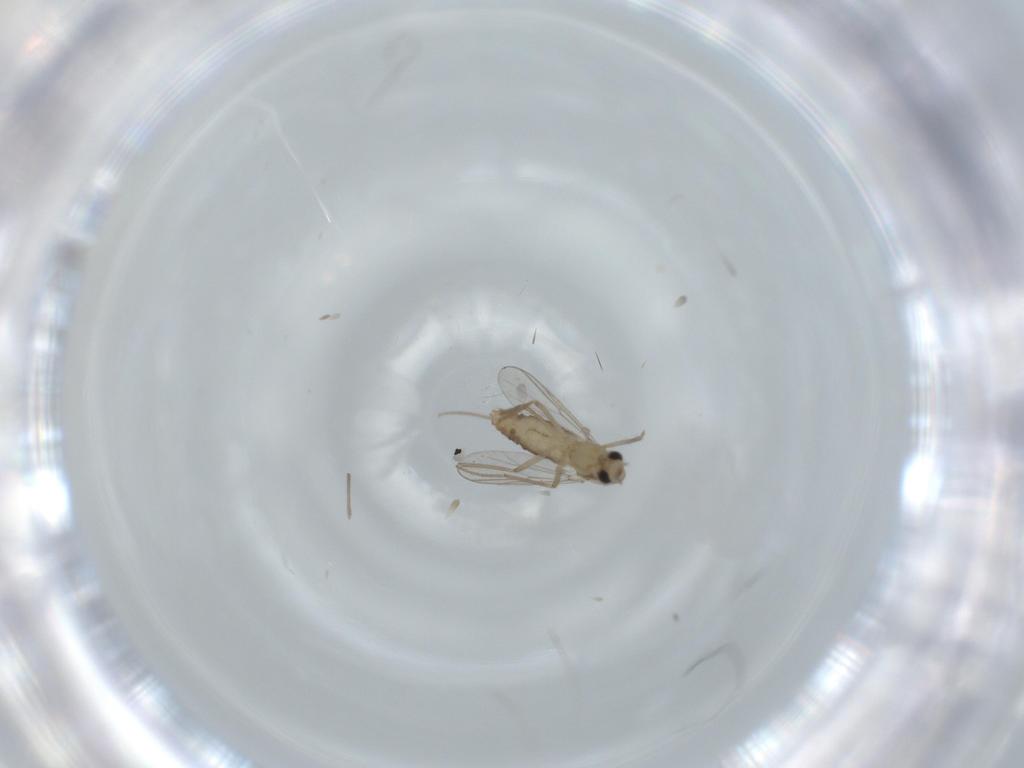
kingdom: Animalia
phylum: Arthropoda
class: Insecta
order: Diptera
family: Chironomidae
